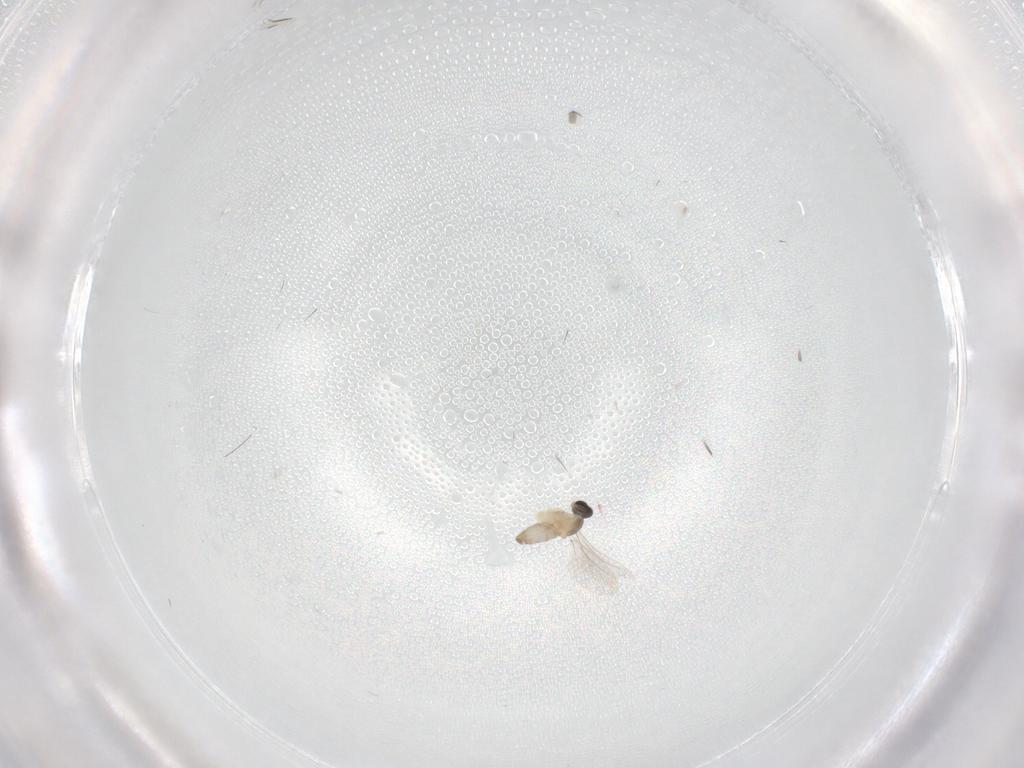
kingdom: Animalia
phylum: Arthropoda
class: Insecta
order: Diptera
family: Cecidomyiidae
